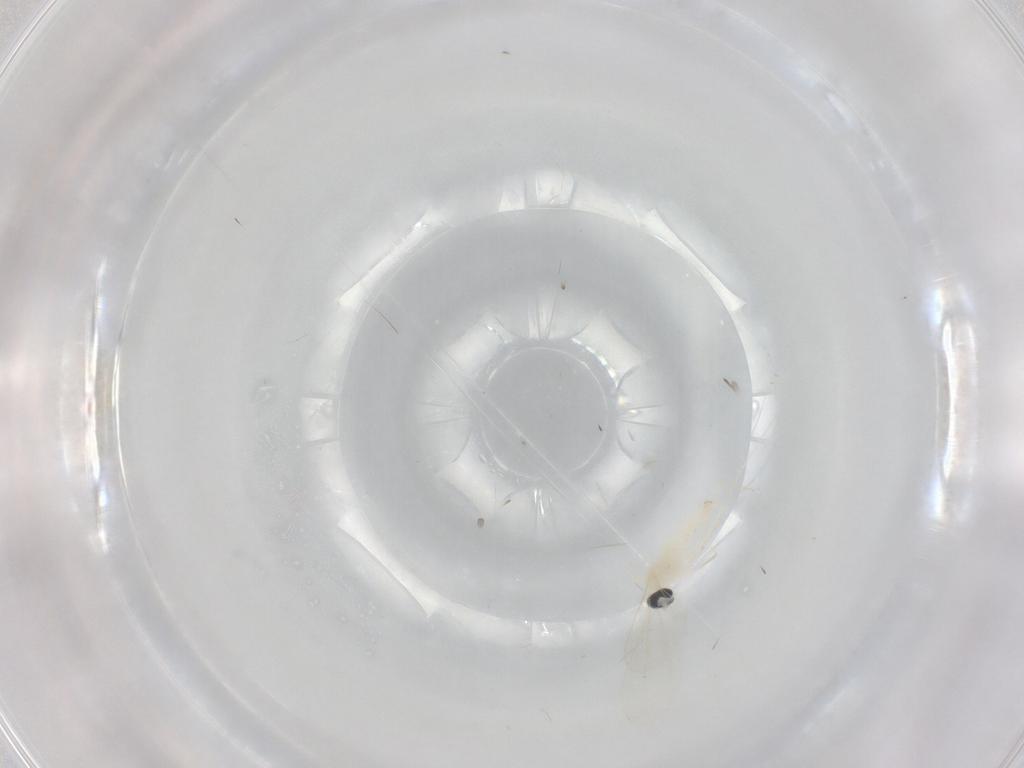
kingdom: Animalia
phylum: Arthropoda
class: Insecta
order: Diptera
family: Cecidomyiidae
